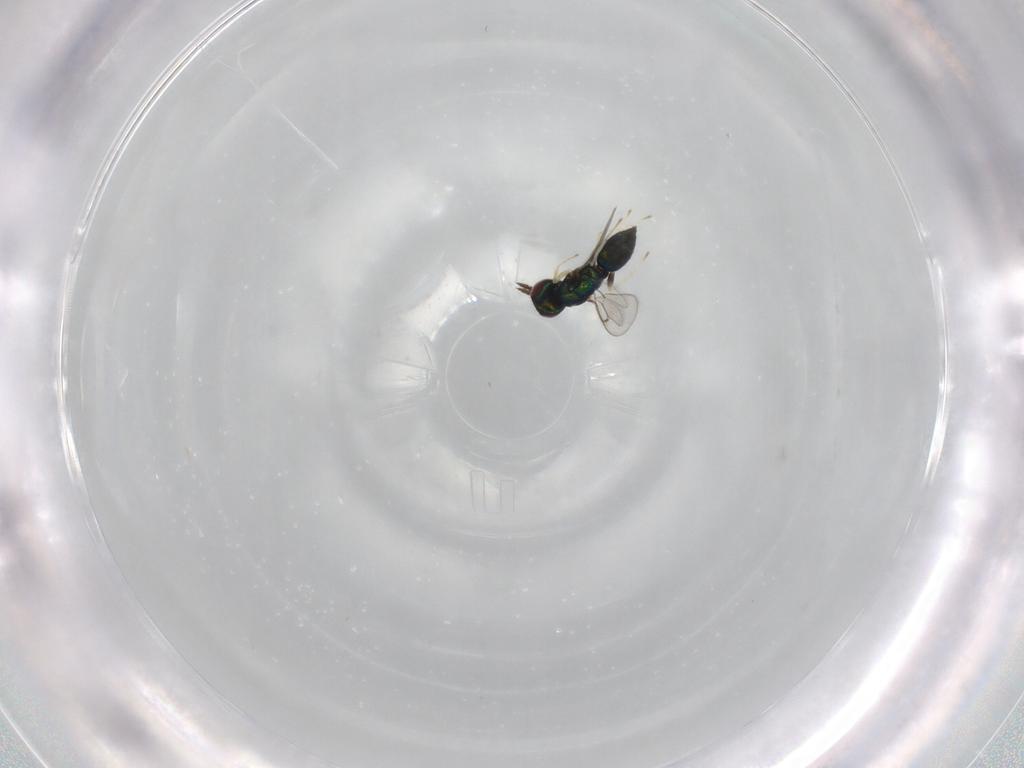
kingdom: Animalia
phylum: Arthropoda
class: Insecta
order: Hymenoptera
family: Eulophidae
